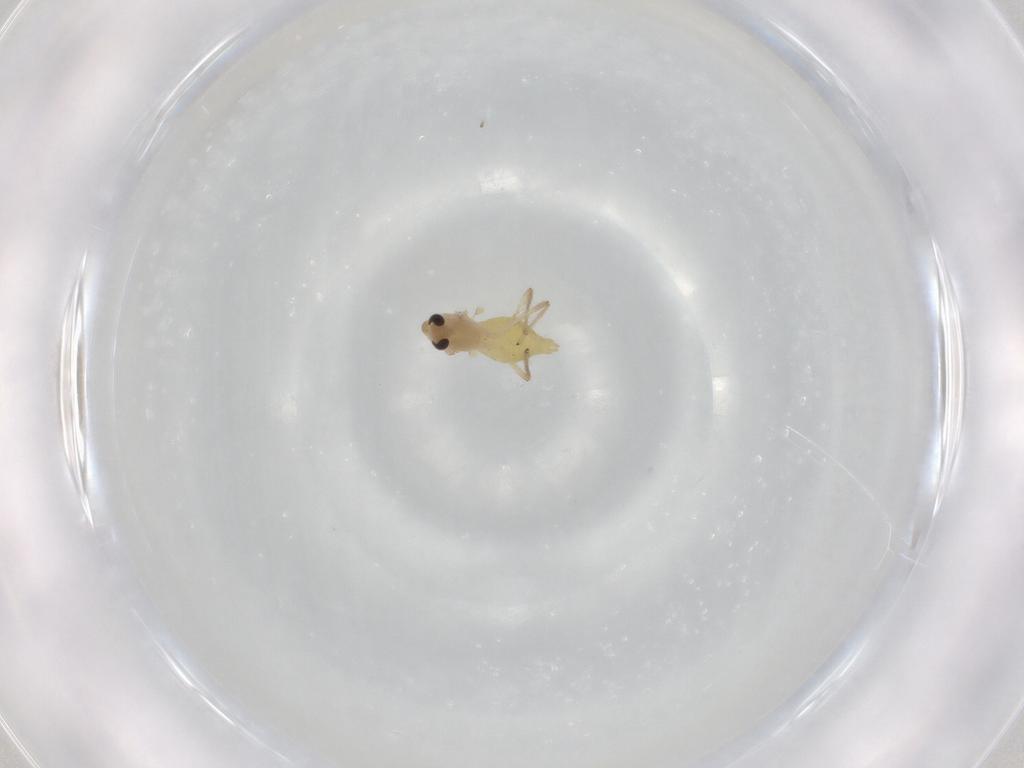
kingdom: Animalia
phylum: Arthropoda
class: Insecta
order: Diptera
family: Chironomidae
